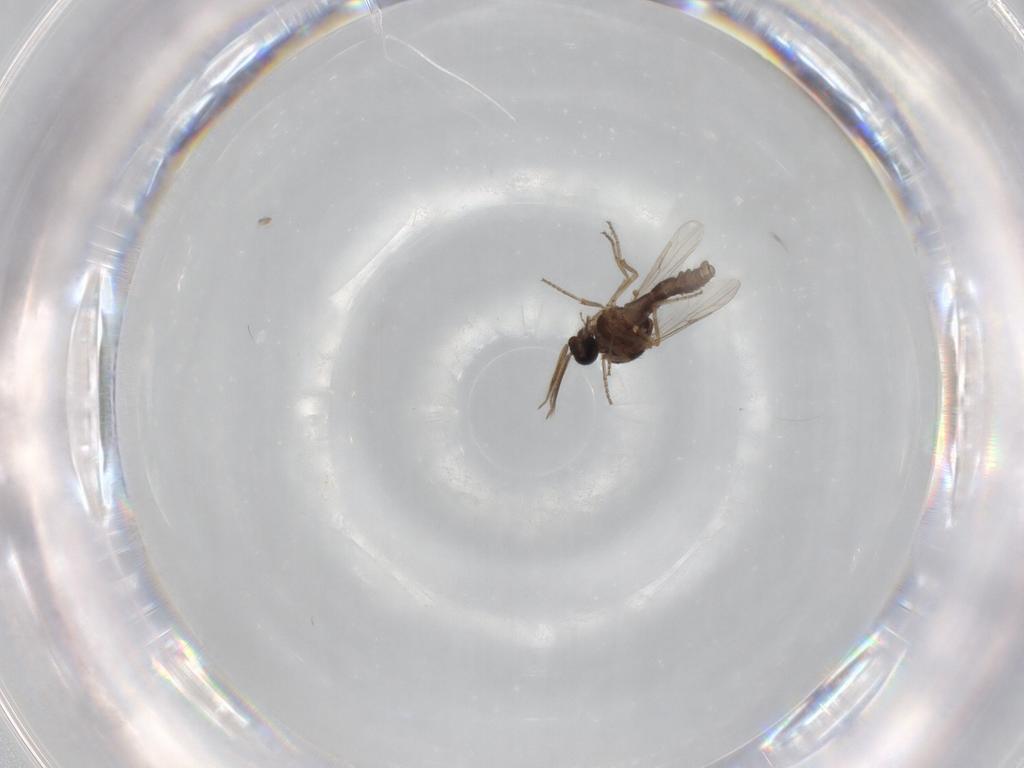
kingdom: Animalia
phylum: Arthropoda
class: Insecta
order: Diptera
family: Ceratopogonidae
